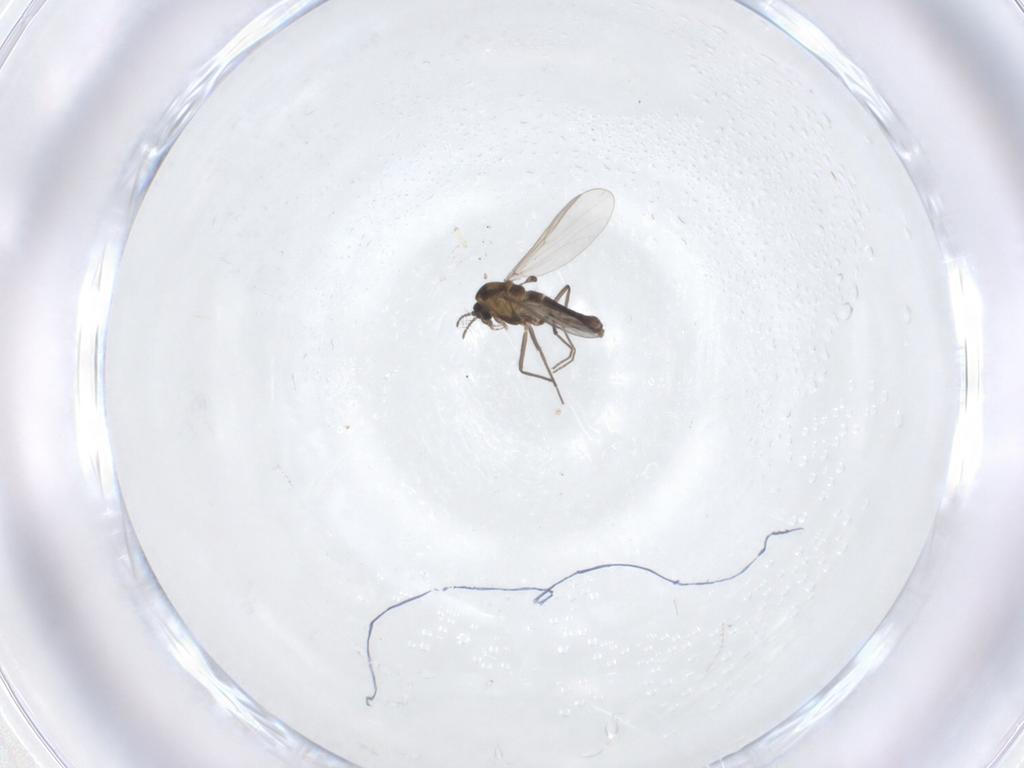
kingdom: Animalia
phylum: Arthropoda
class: Insecta
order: Diptera
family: Chironomidae
